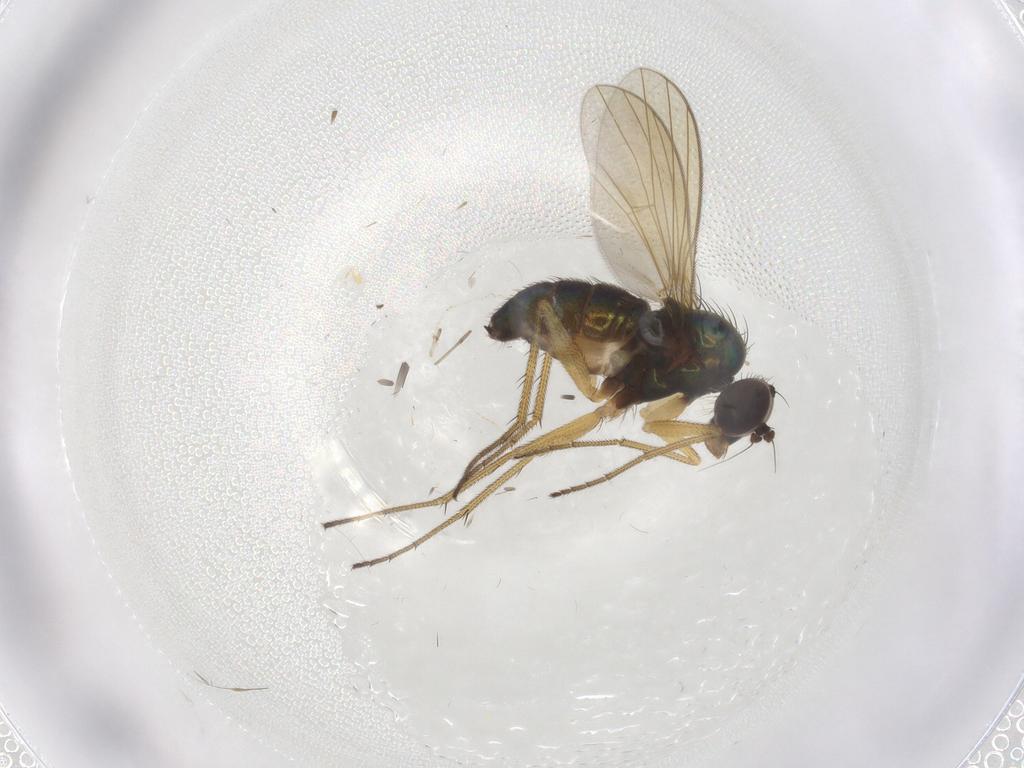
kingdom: Animalia
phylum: Arthropoda
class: Insecta
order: Diptera
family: Dolichopodidae
